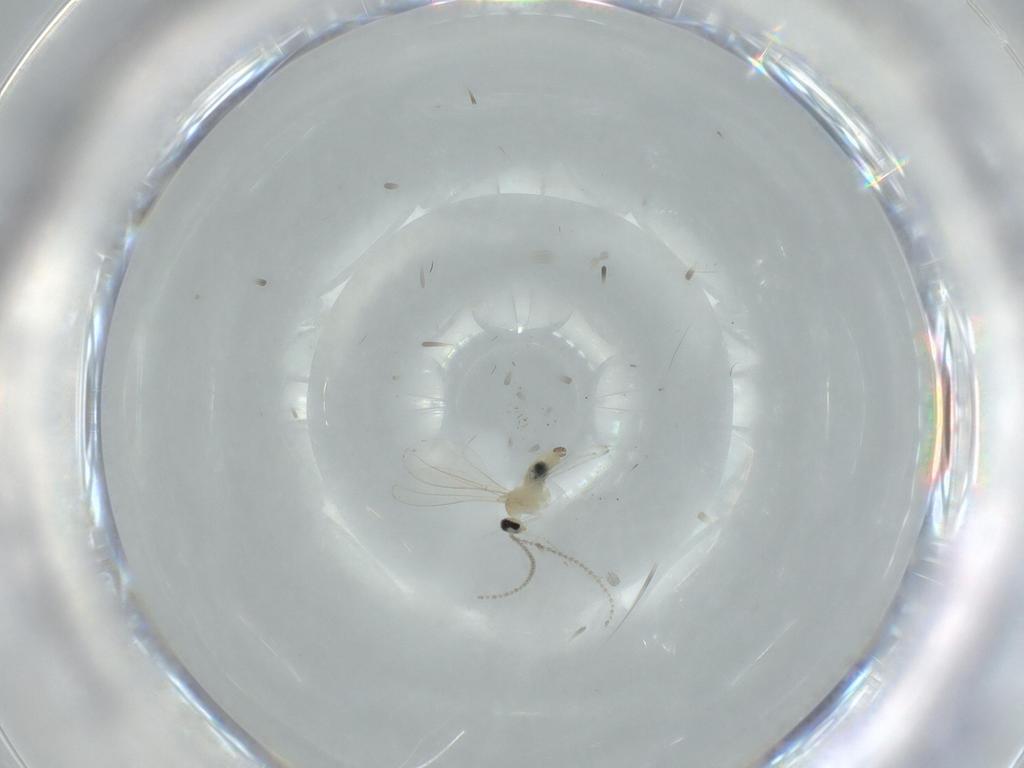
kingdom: Animalia
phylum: Arthropoda
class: Insecta
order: Diptera
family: Cecidomyiidae
